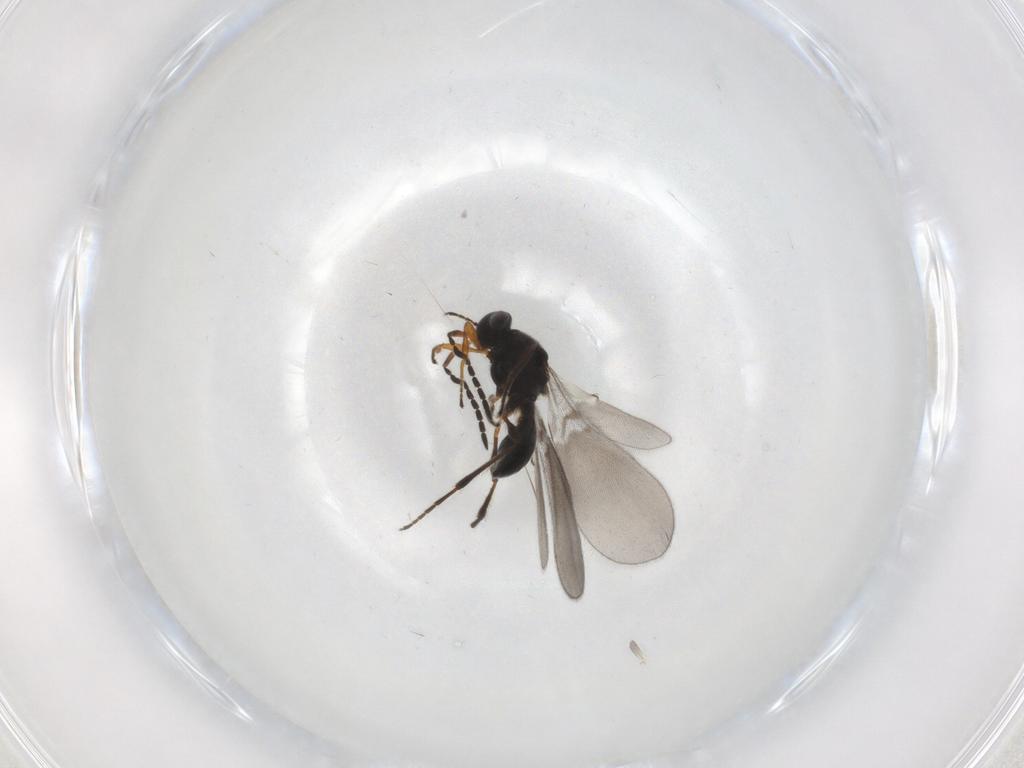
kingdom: Animalia
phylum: Arthropoda
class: Insecta
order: Hymenoptera
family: Platygastridae
